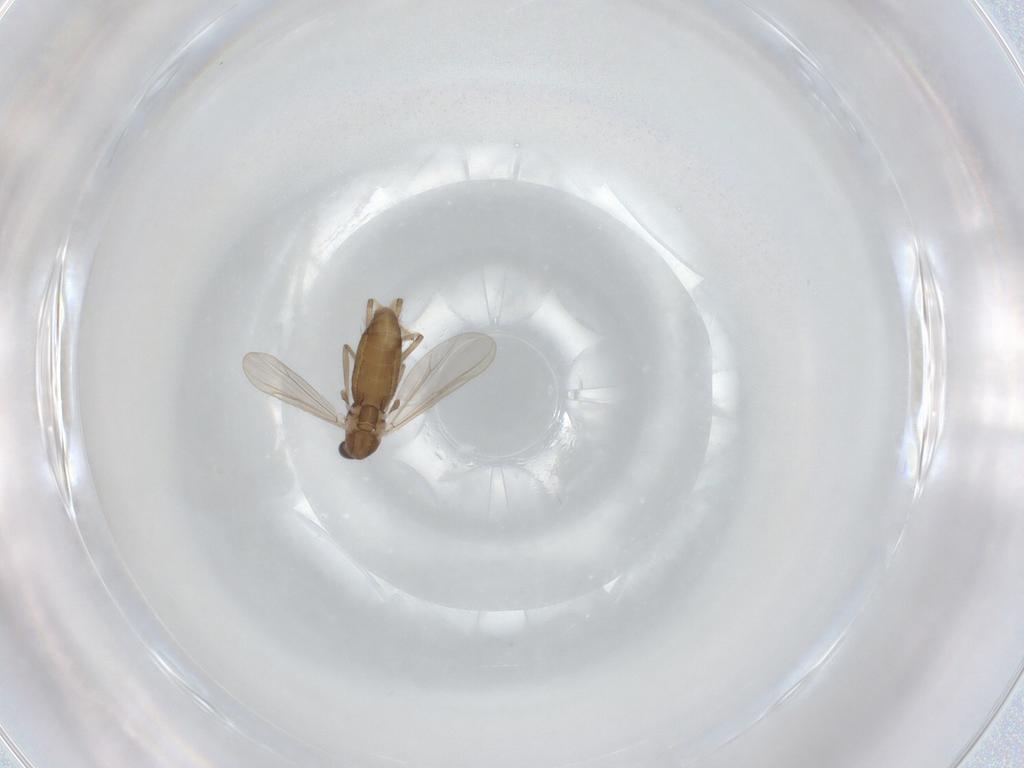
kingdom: Animalia
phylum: Arthropoda
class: Insecta
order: Diptera
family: Chironomidae
